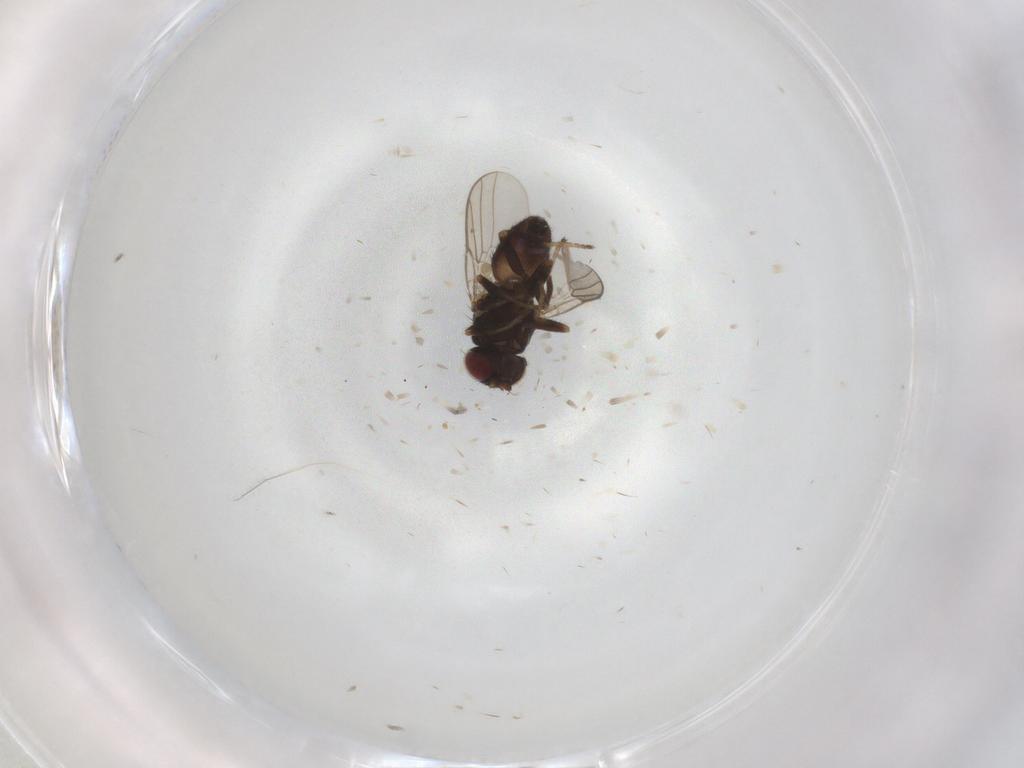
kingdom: Animalia
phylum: Arthropoda
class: Insecta
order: Diptera
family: Chloropidae
